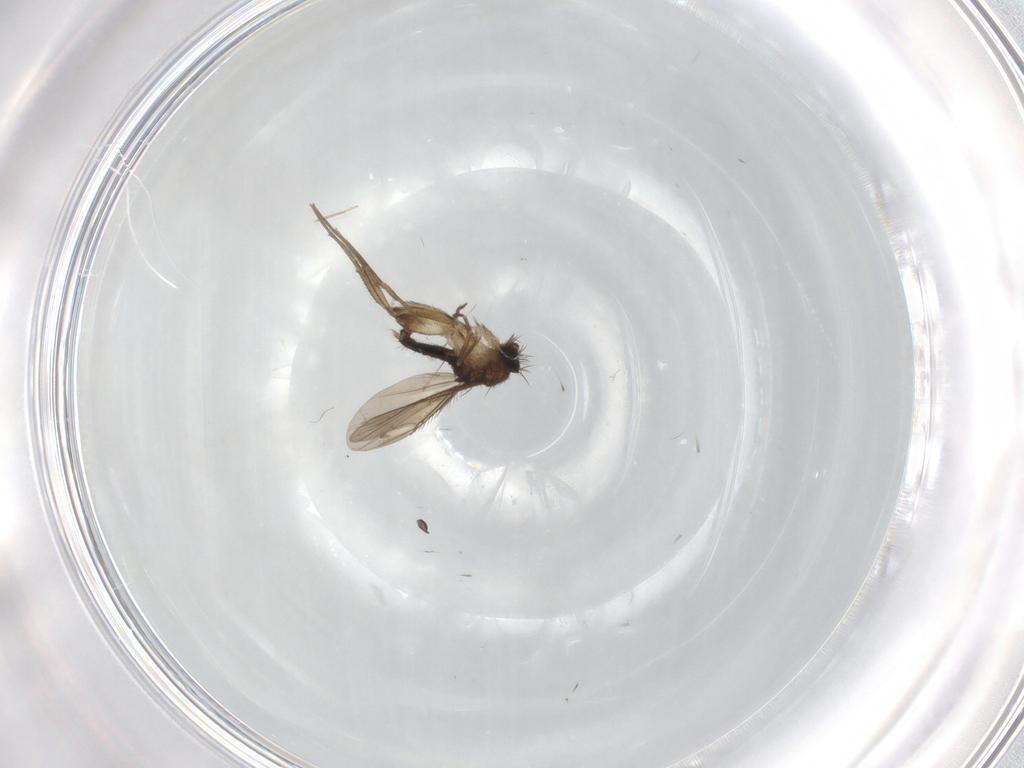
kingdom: Animalia
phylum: Arthropoda
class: Insecta
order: Diptera
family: Phoridae
